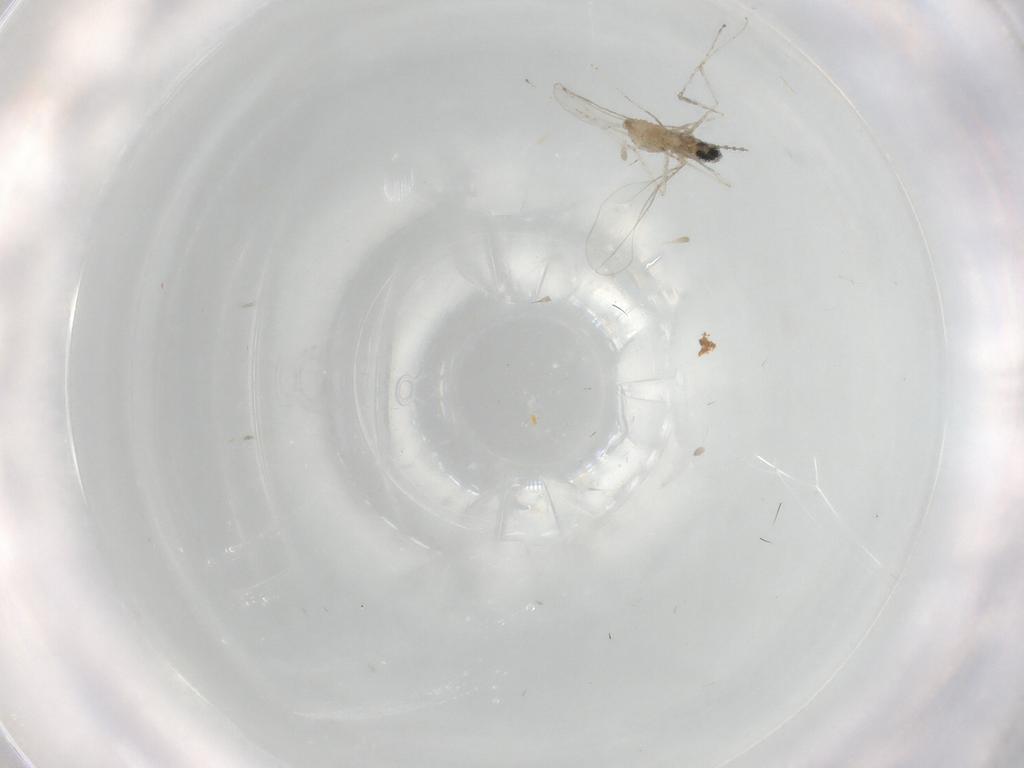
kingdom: Animalia
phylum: Arthropoda
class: Insecta
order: Diptera
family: Cecidomyiidae
